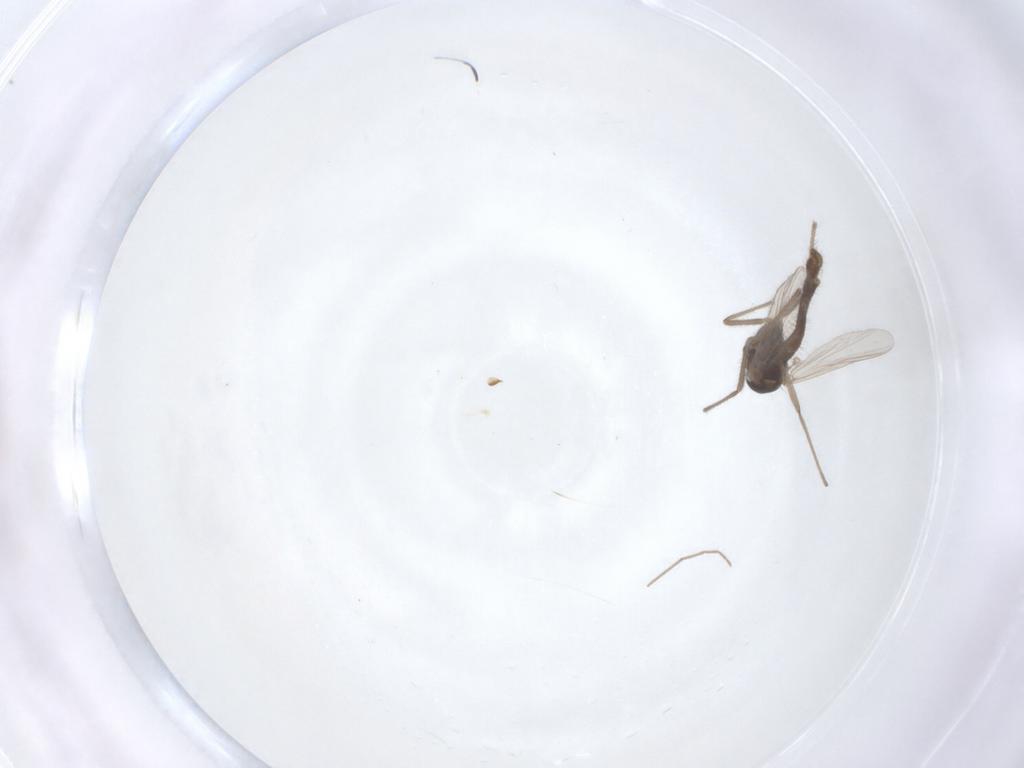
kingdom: Animalia
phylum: Arthropoda
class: Insecta
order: Diptera
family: Chironomidae
